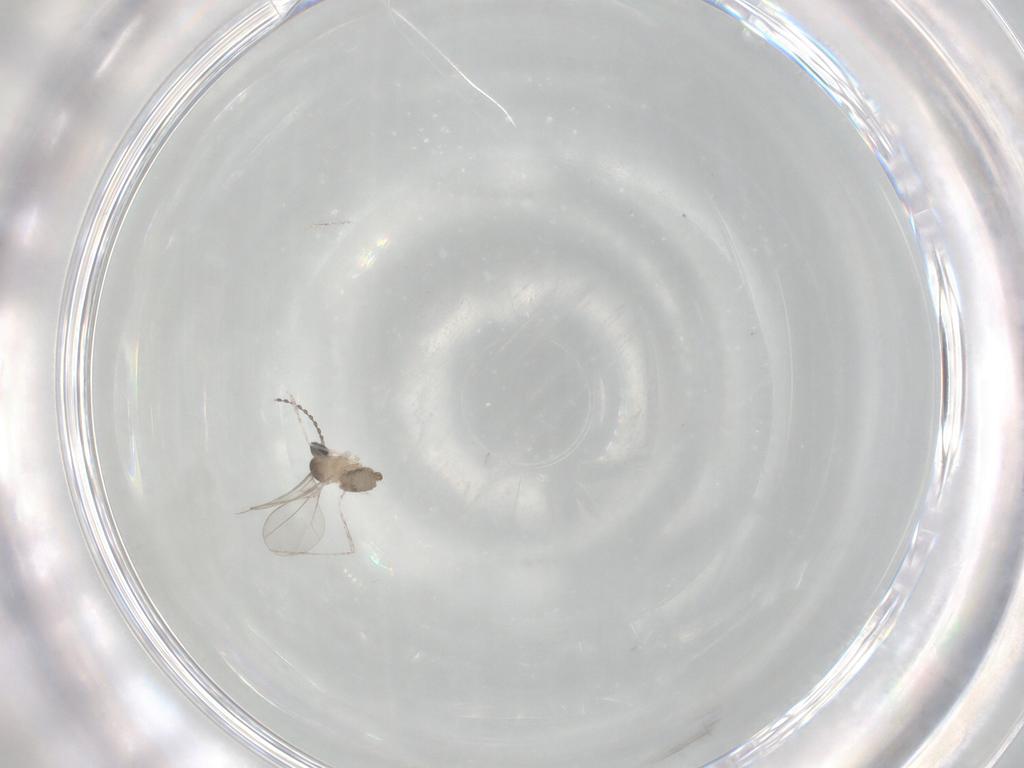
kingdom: Animalia
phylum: Arthropoda
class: Insecta
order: Diptera
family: Cecidomyiidae
